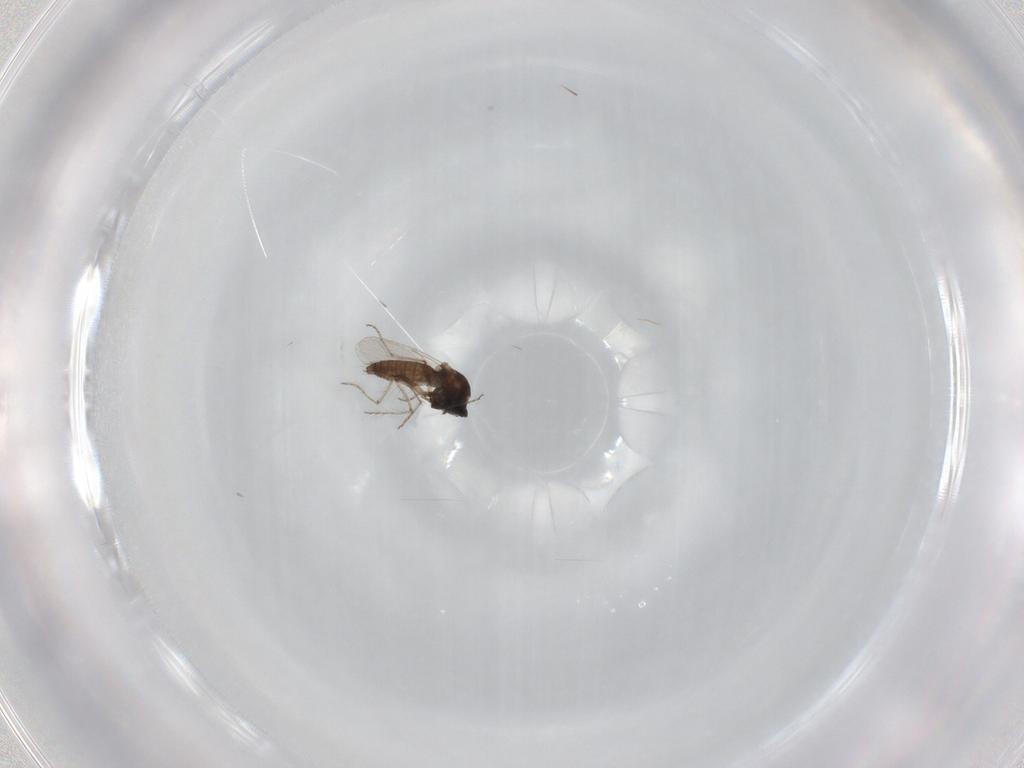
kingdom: Animalia
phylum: Arthropoda
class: Insecta
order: Diptera
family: Ceratopogonidae
